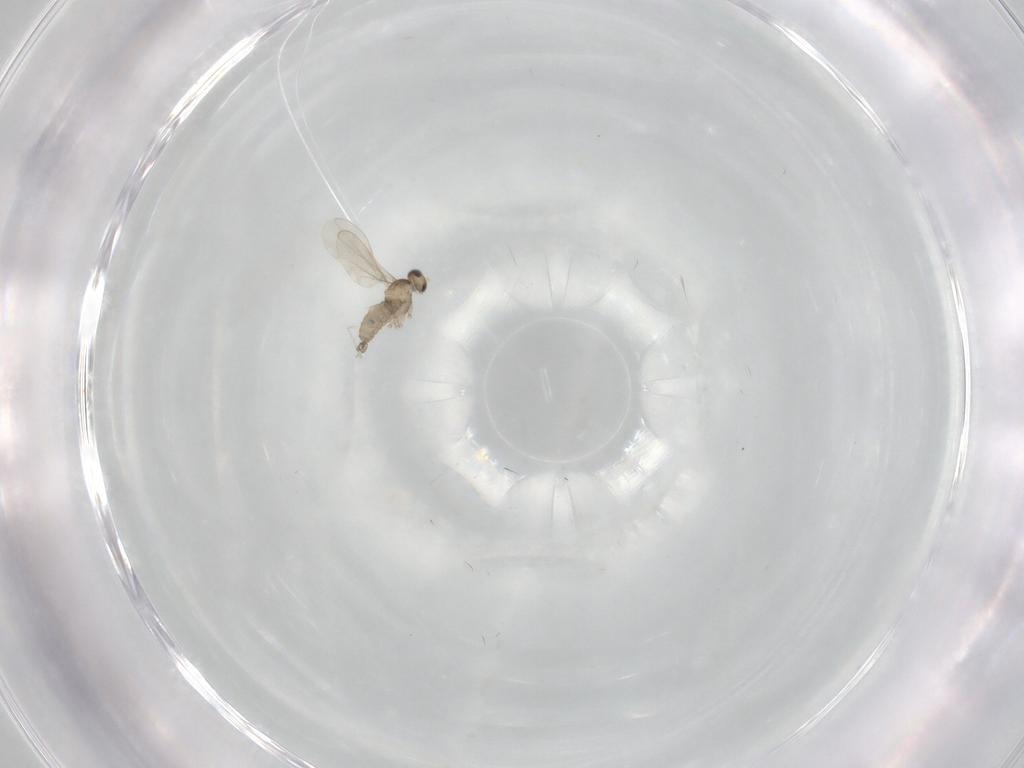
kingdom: Animalia
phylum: Arthropoda
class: Insecta
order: Diptera
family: Cecidomyiidae
